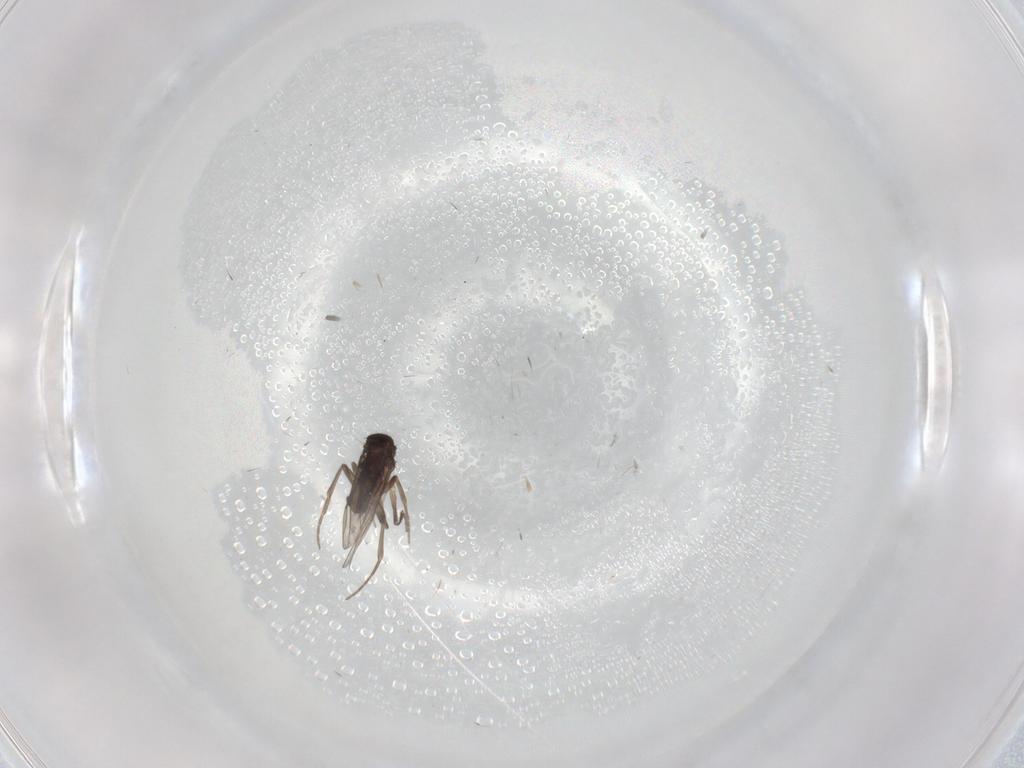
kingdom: Animalia
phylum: Arthropoda
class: Insecta
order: Diptera
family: Phoridae
